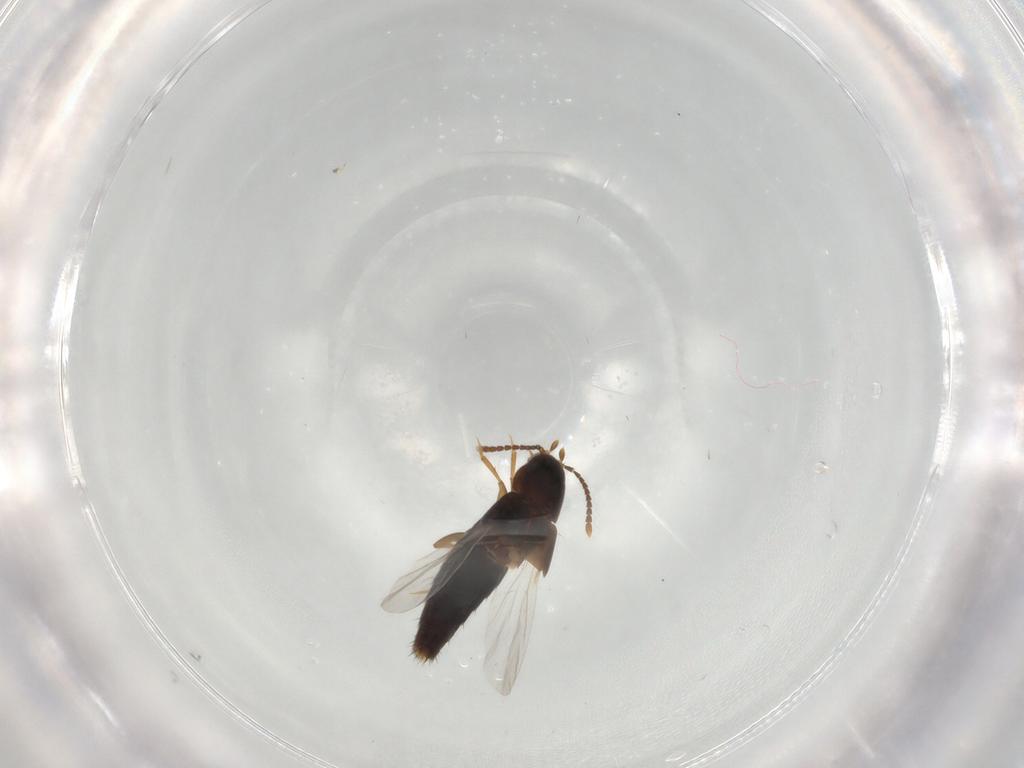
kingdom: Animalia
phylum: Arthropoda
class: Insecta
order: Coleoptera
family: Staphylinidae
